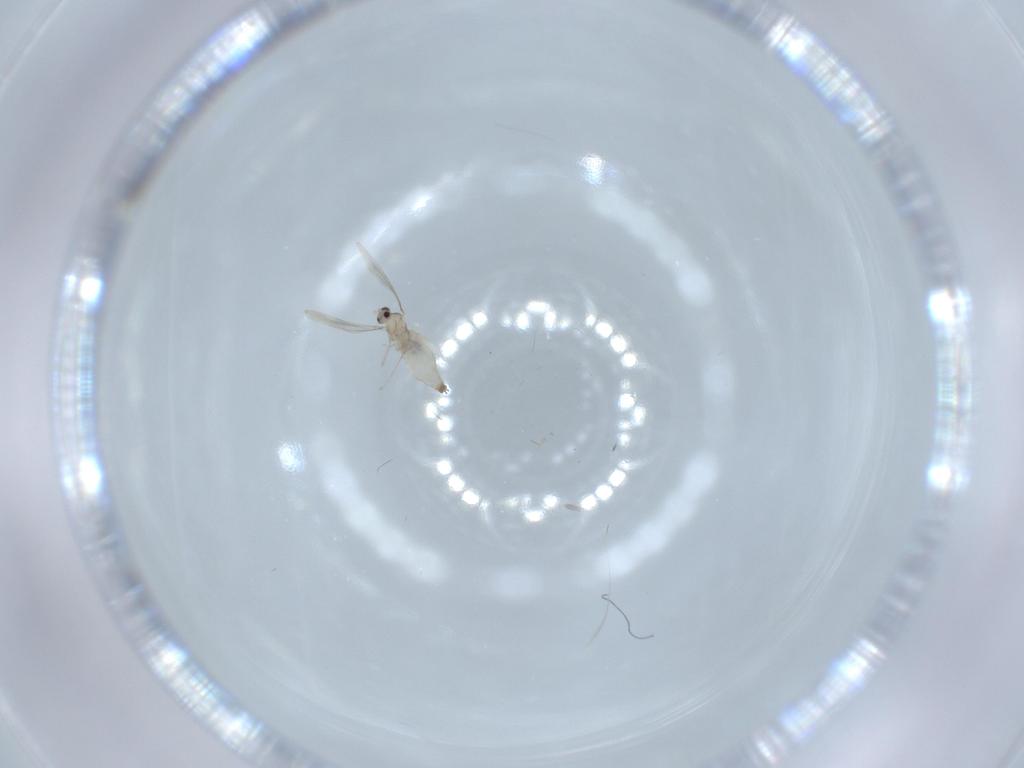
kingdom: Animalia
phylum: Arthropoda
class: Insecta
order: Diptera
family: Cecidomyiidae
